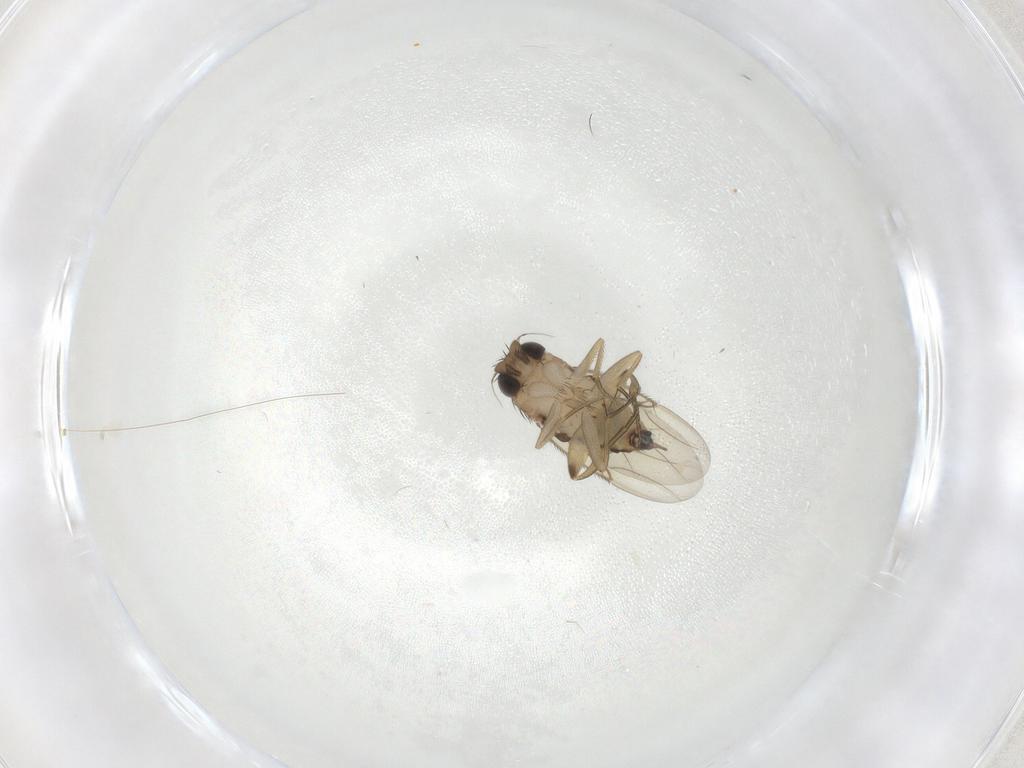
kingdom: Animalia
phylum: Arthropoda
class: Insecta
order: Diptera
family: Phoridae
